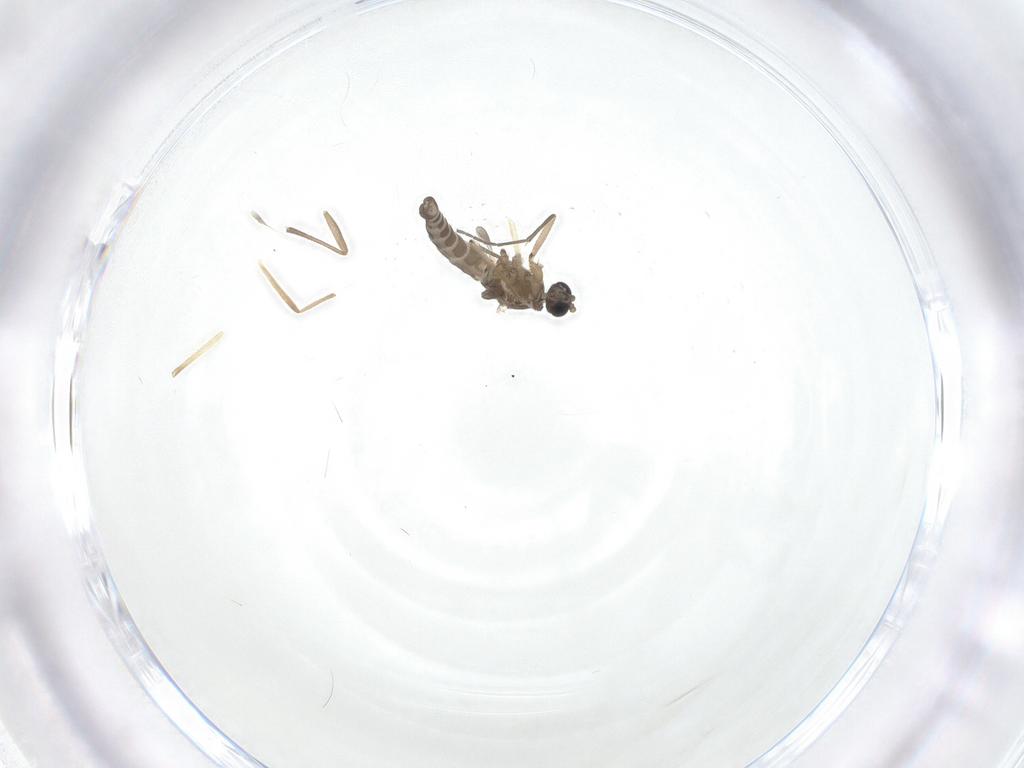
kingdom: Animalia
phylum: Arthropoda
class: Insecta
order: Diptera
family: Sciaridae
